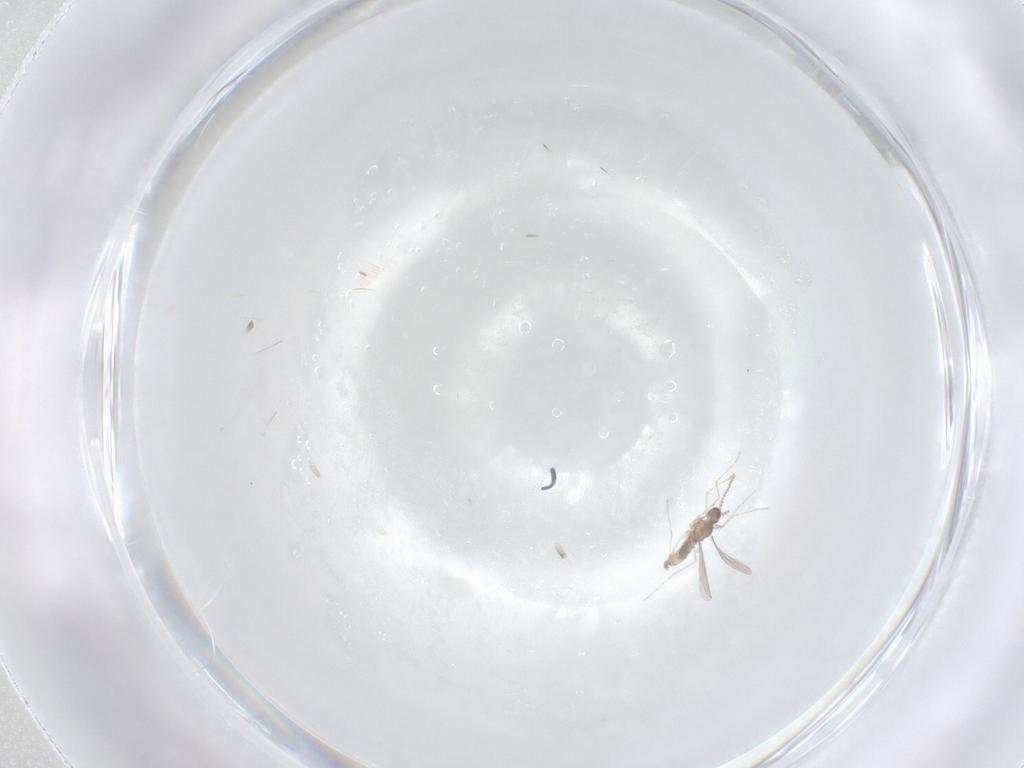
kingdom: Animalia
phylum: Arthropoda
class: Insecta
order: Diptera
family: Cecidomyiidae
